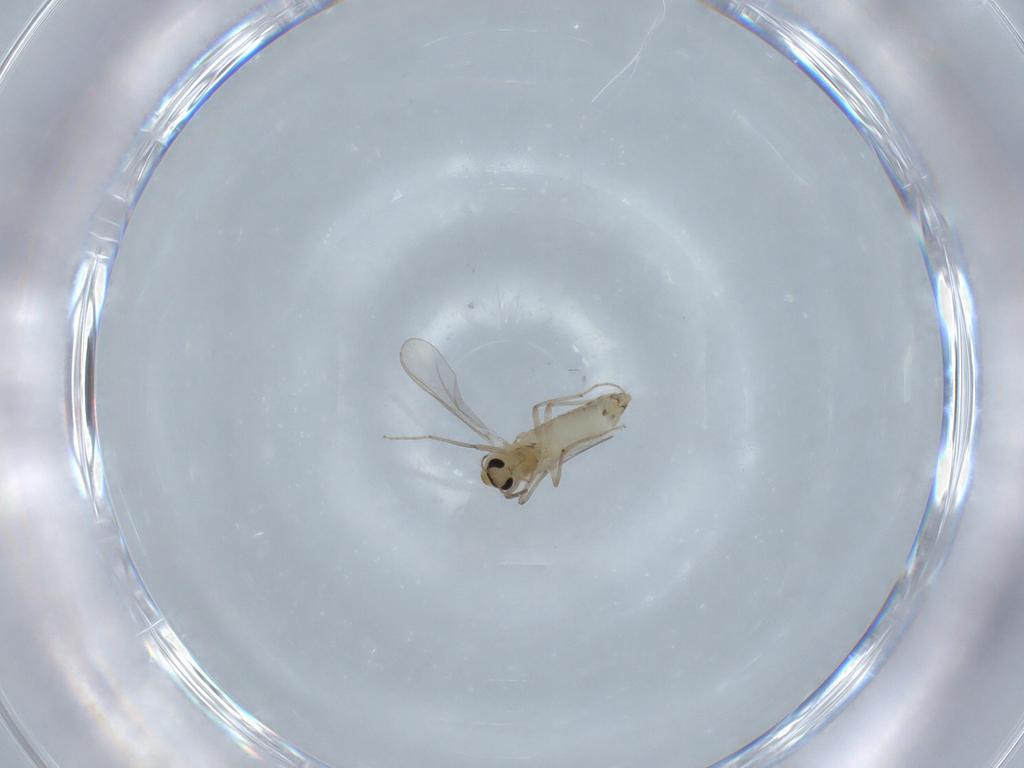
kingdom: Animalia
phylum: Arthropoda
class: Insecta
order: Diptera
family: Chironomidae
